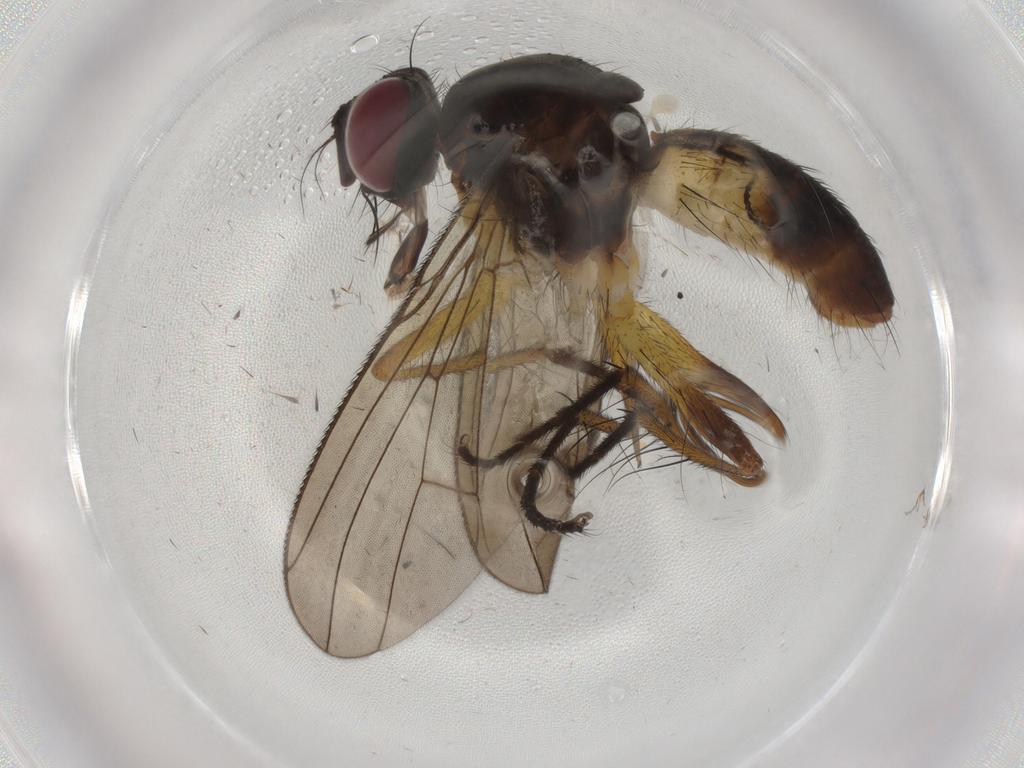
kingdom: Animalia
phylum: Arthropoda
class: Insecta
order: Diptera
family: Muscidae
